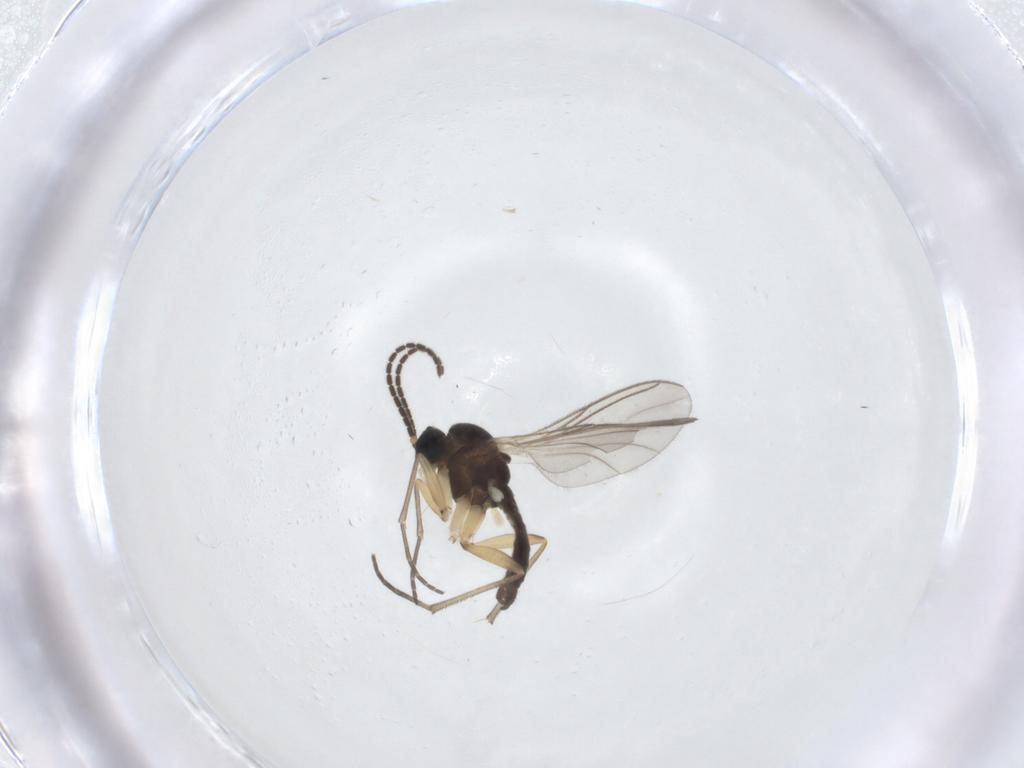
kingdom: Animalia
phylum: Arthropoda
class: Insecta
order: Diptera
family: Sciaridae
